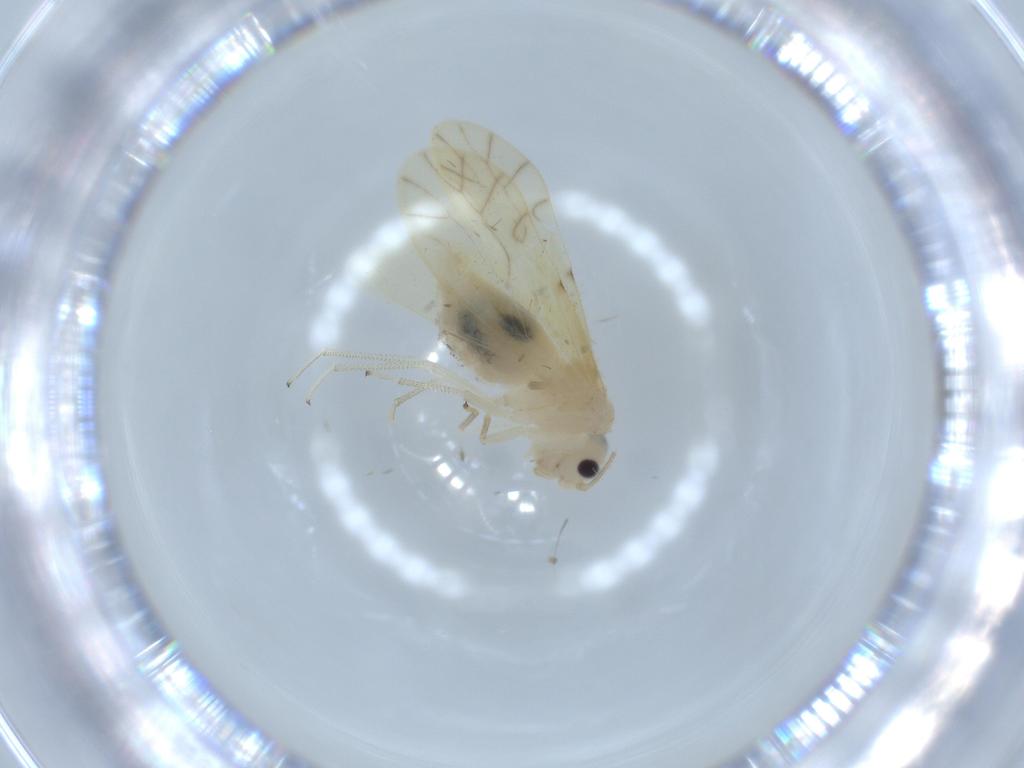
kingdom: Animalia
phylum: Arthropoda
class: Insecta
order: Psocodea
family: Caeciliusidae
